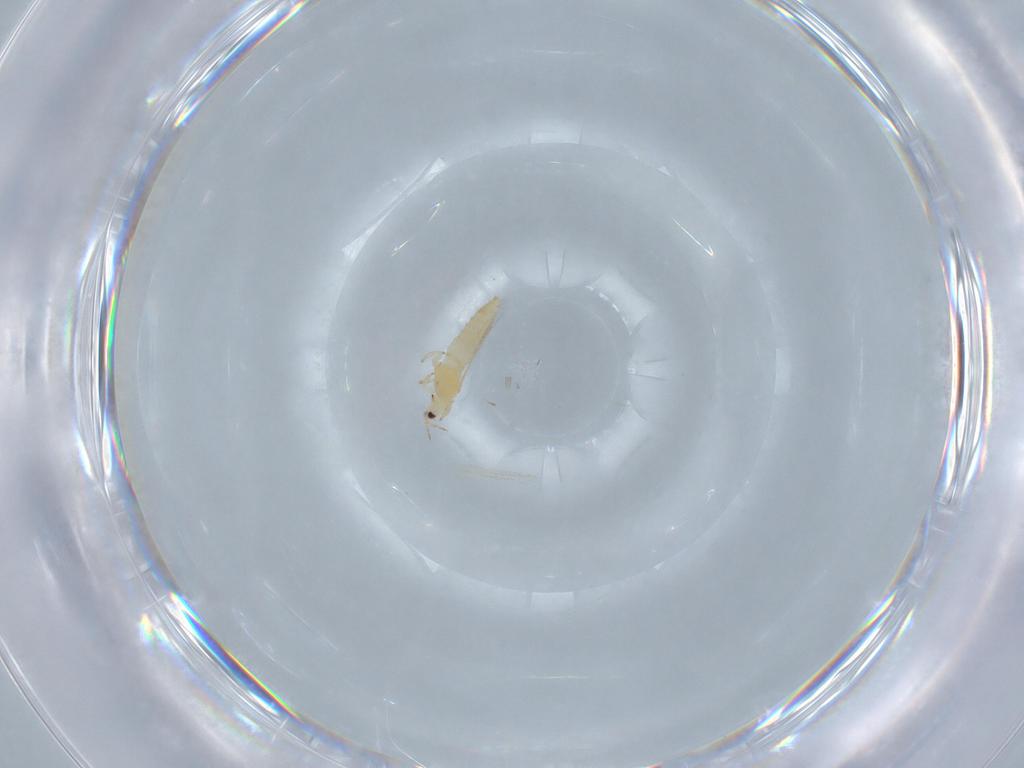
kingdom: Animalia
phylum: Arthropoda
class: Insecta
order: Thysanoptera
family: Thripidae
